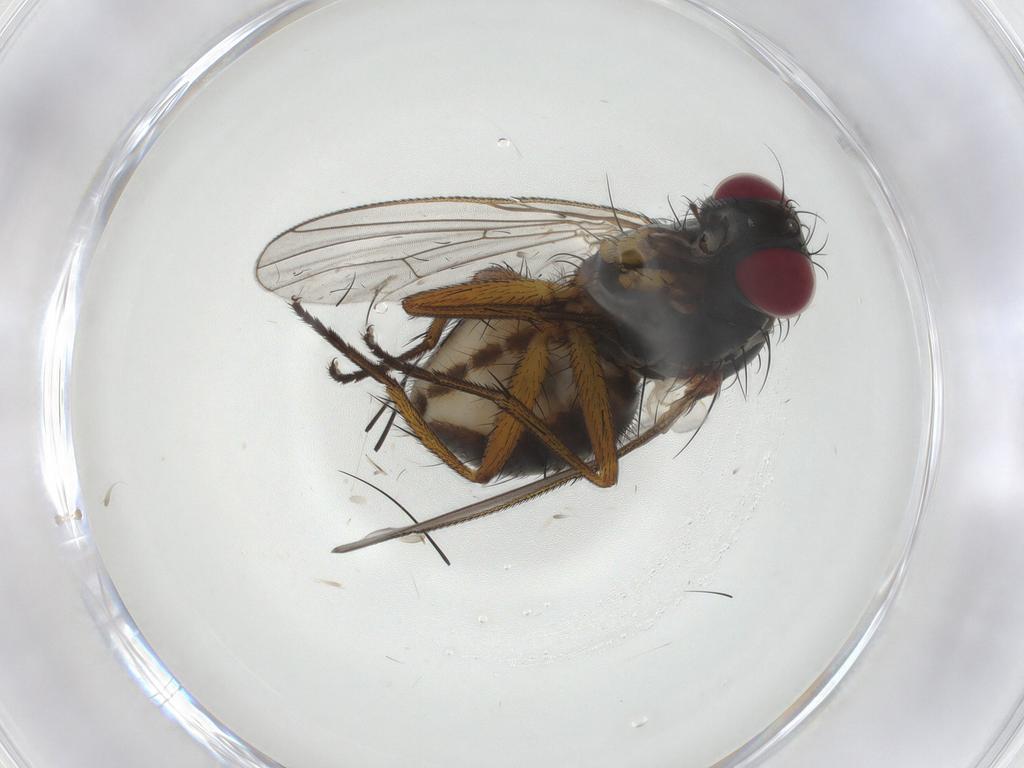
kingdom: Animalia
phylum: Arthropoda
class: Insecta
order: Diptera
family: Muscidae
